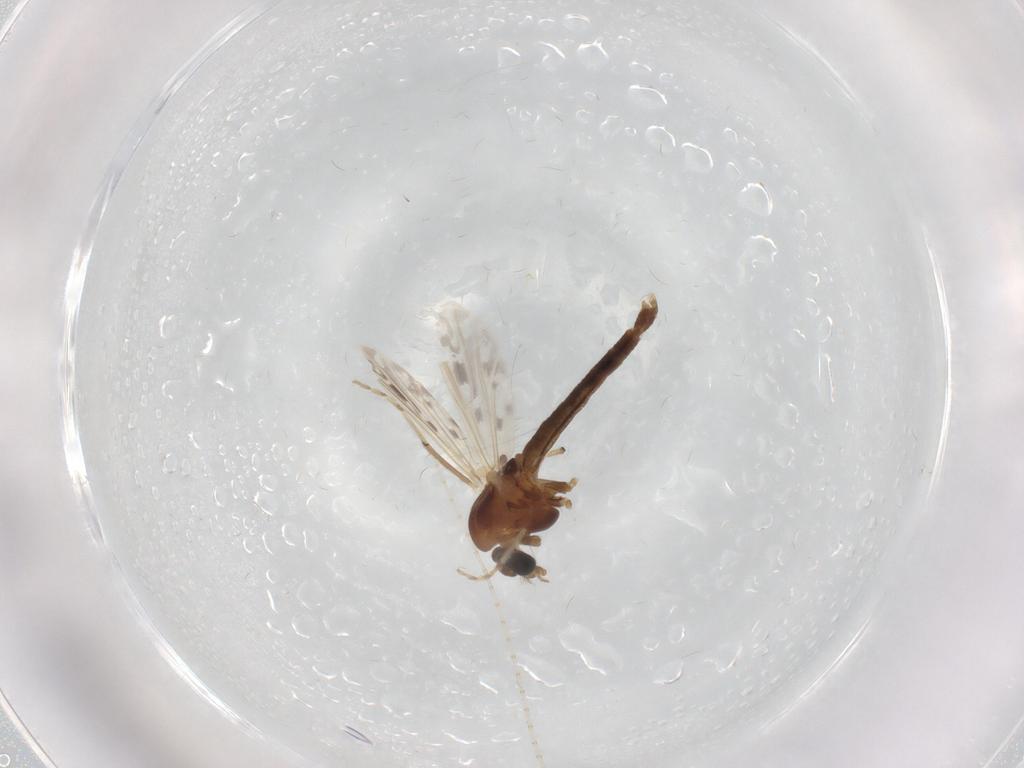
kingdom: Animalia
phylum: Arthropoda
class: Insecta
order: Diptera
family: Chironomidae
